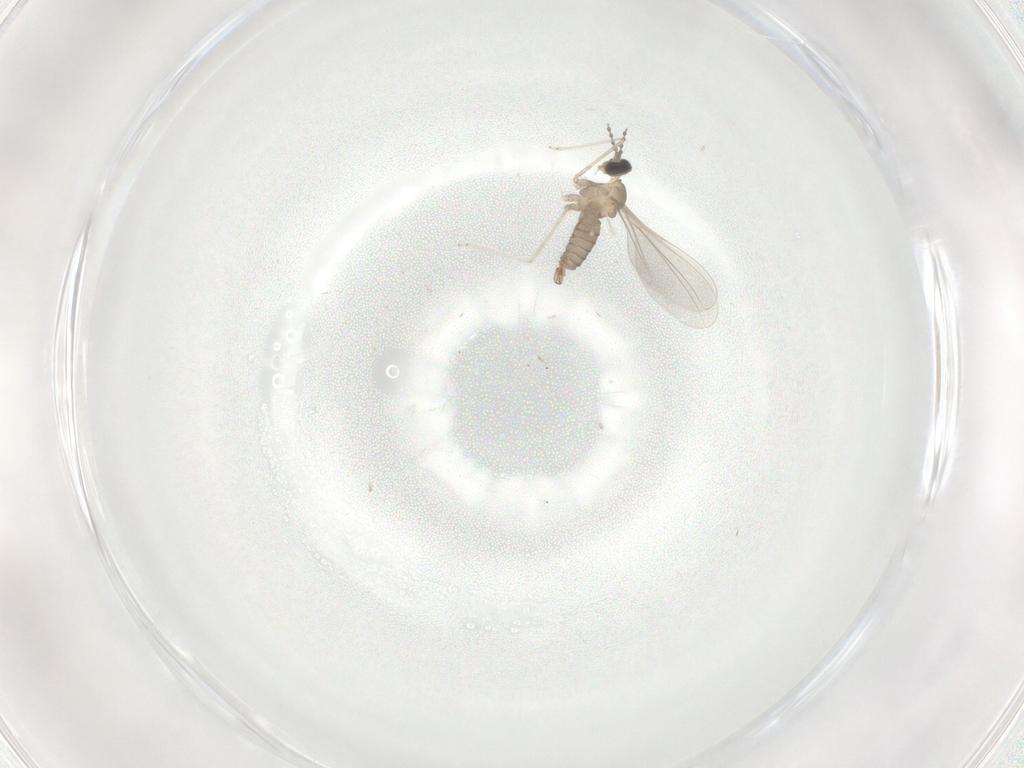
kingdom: Animalia
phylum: Arthropoda
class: Insecta
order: Diptera
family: Cecidomyiidae
